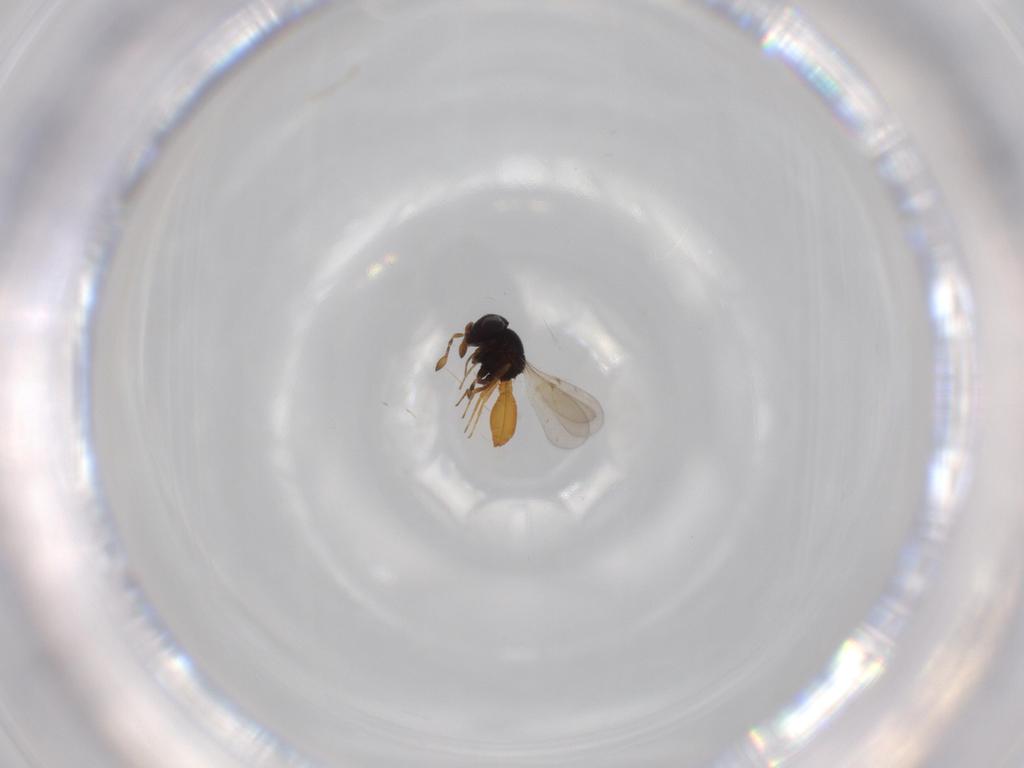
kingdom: Animalia
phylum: Arthropoda
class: Insecta
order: Hymenoptera
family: Scelionidae
